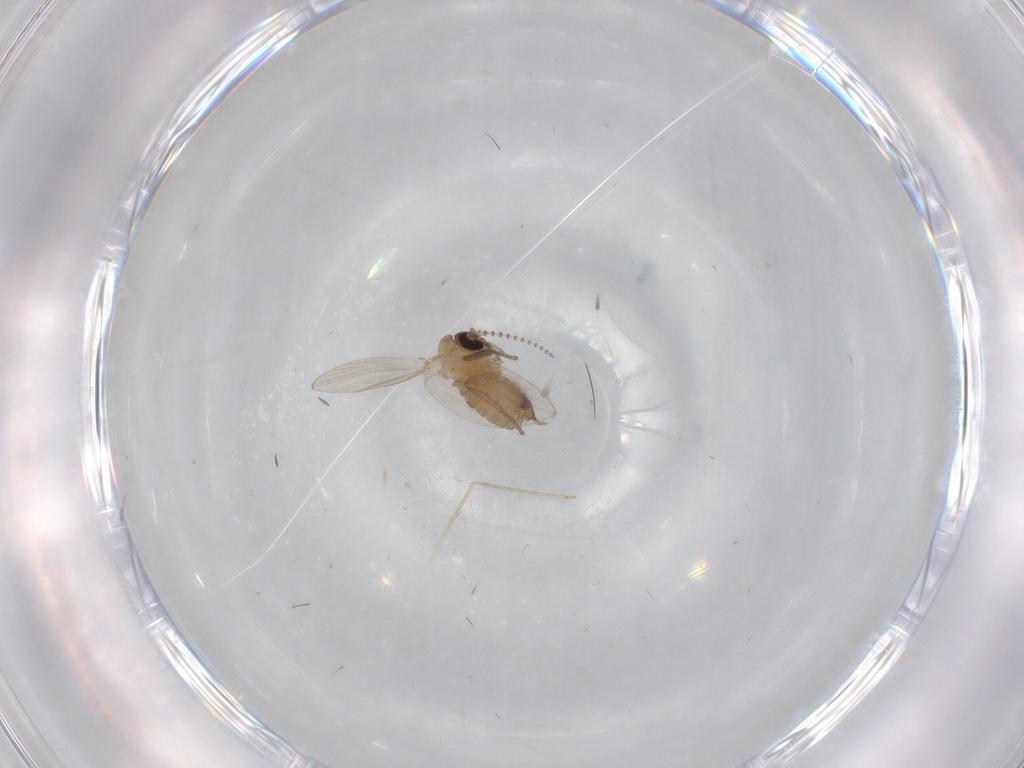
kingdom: Animalia
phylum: Arthropoda
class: Insecta
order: Diptera
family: Psychodidae
